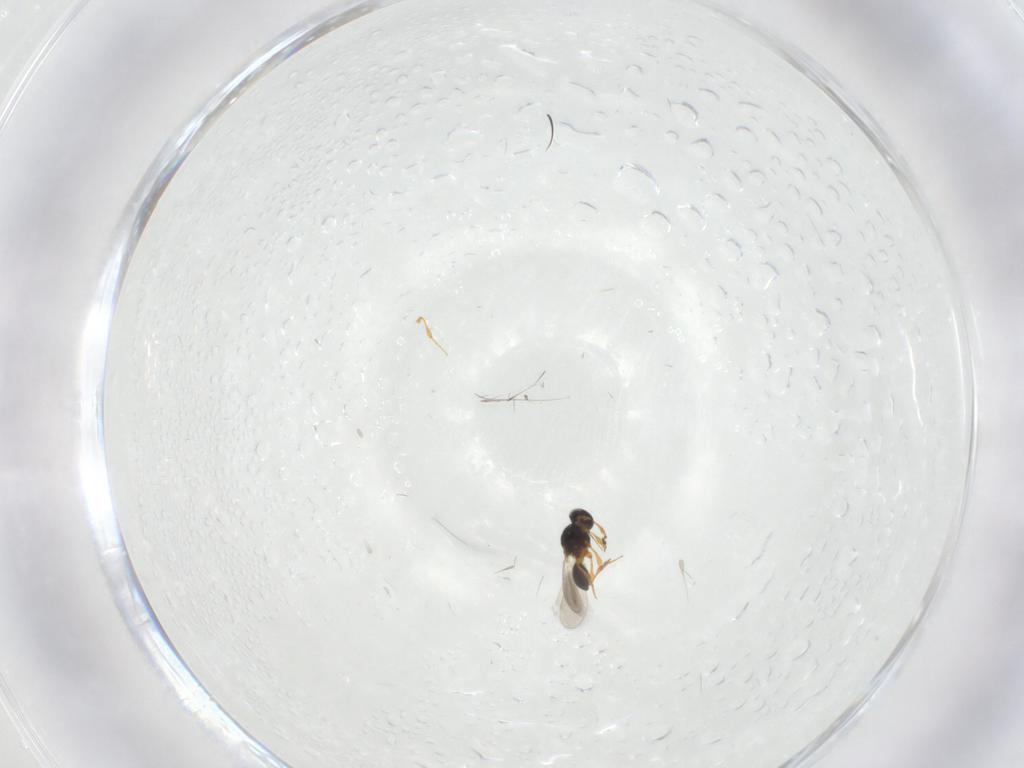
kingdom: Animalia
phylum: Arthropoda
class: Insecta
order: Hymenoptera
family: Platygastridae
